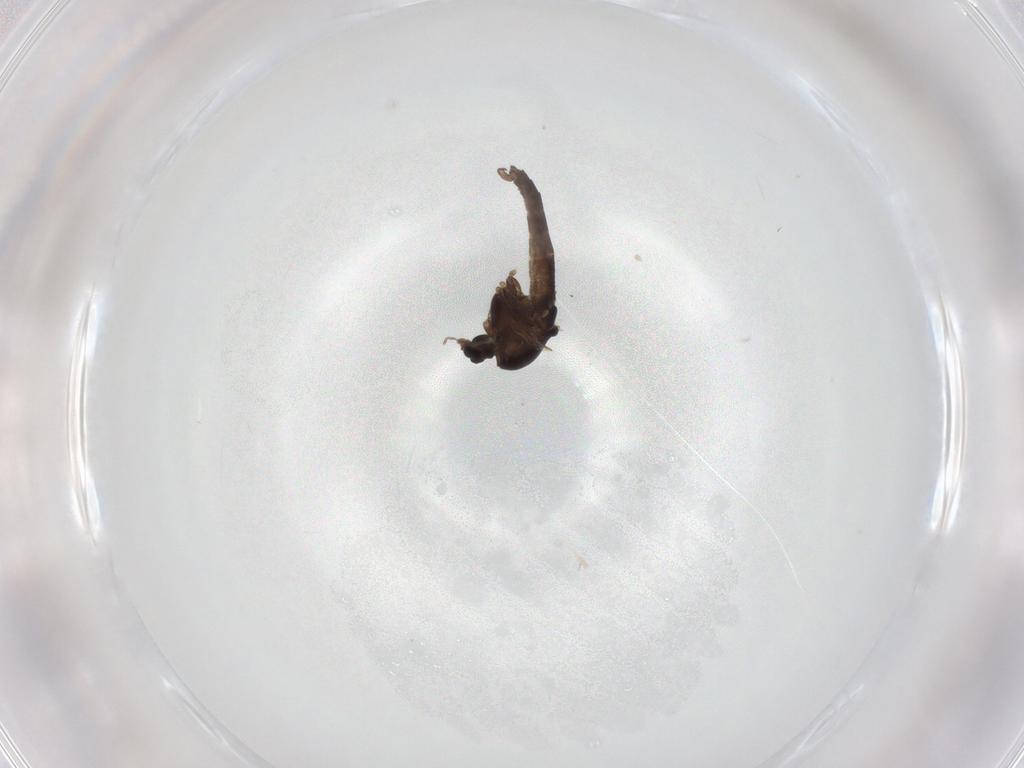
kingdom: Animalia
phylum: Arthropoda
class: Insecta
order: Diptera
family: Chironomidae
